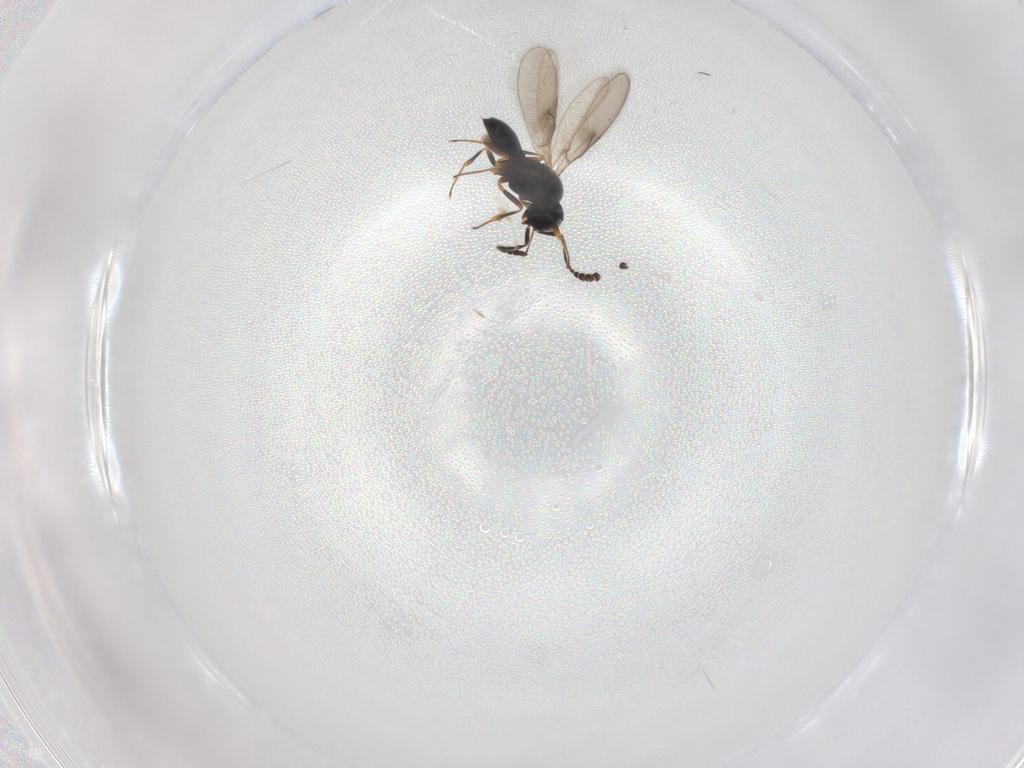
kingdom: Animalia
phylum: Arthropoda
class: Insecta
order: Hymenoptera
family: Scelionidae
